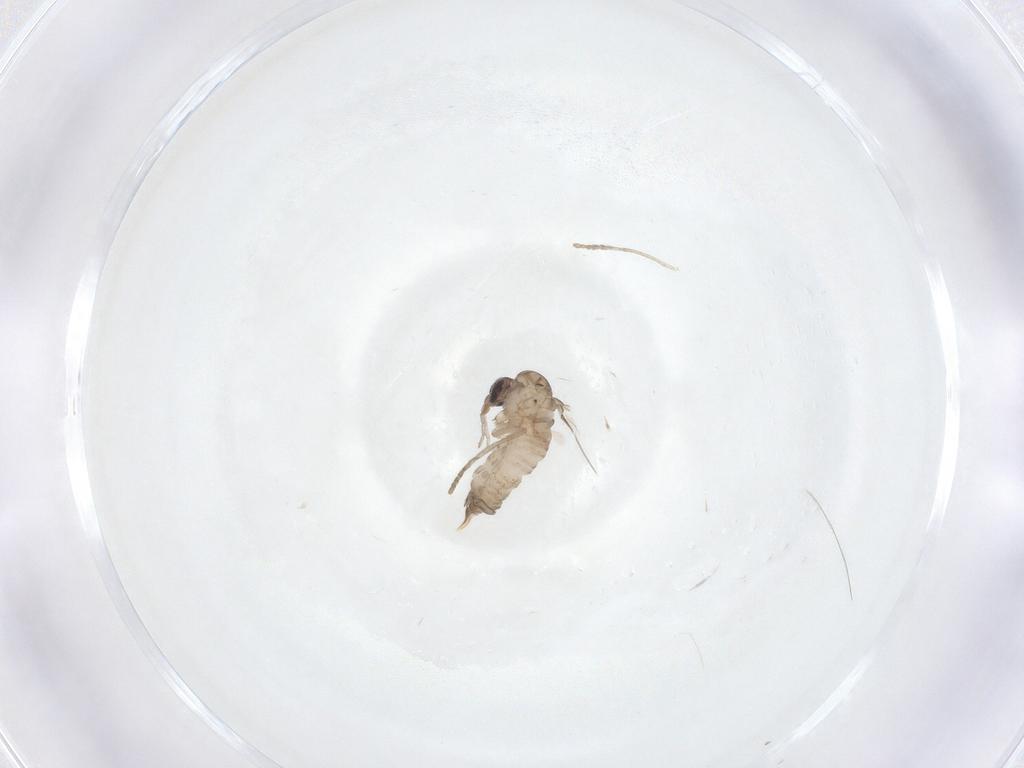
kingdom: Animalia
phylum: Arthropoda
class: Insecta
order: Diptera
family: Psychodidae
